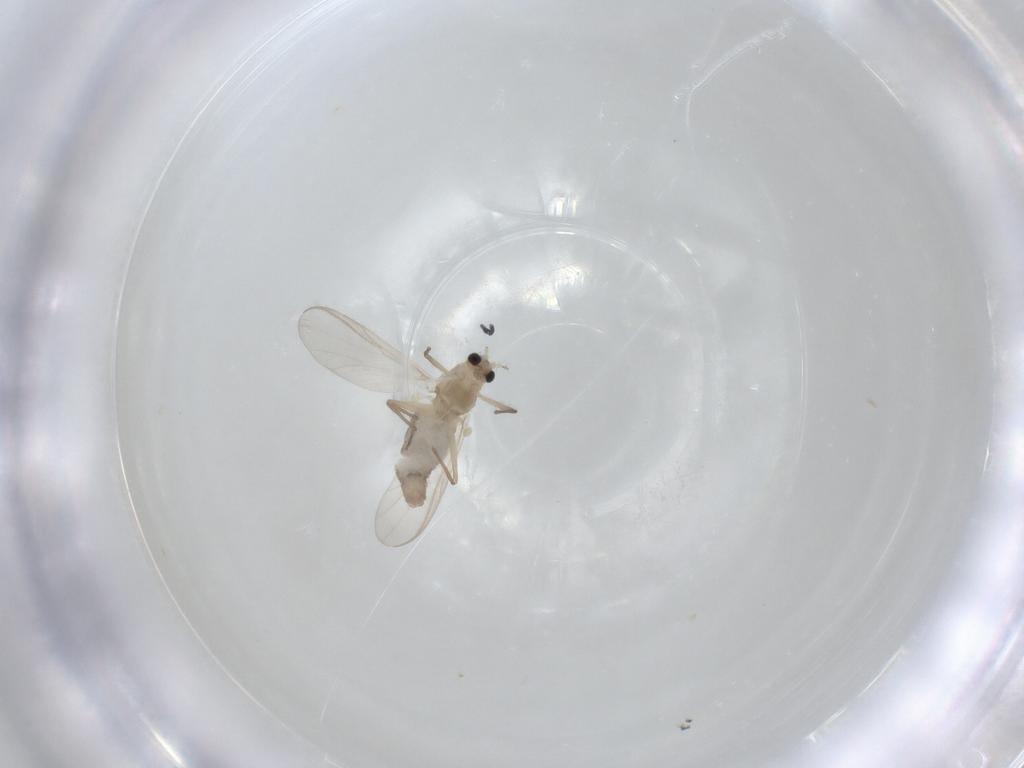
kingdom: Animalia
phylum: Arthropoda
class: Insecta
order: Diptera
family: Chironomidae
